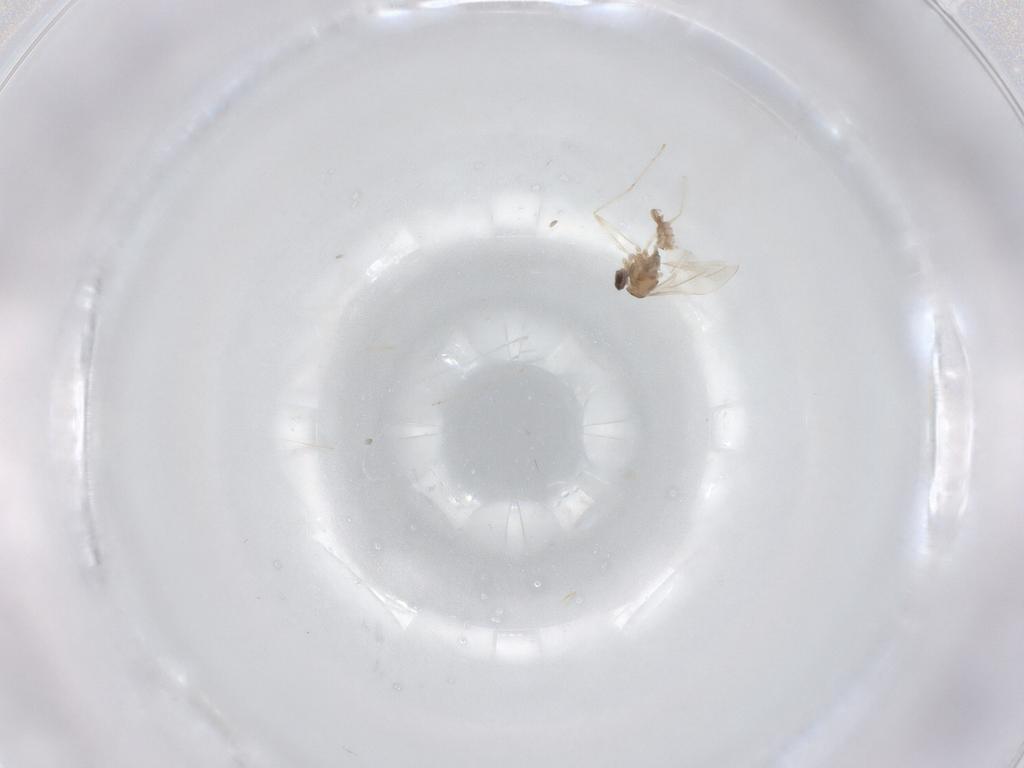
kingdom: Animalia
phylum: Arthropoda
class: Insecta
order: Diptera
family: Cecidomyiidae
